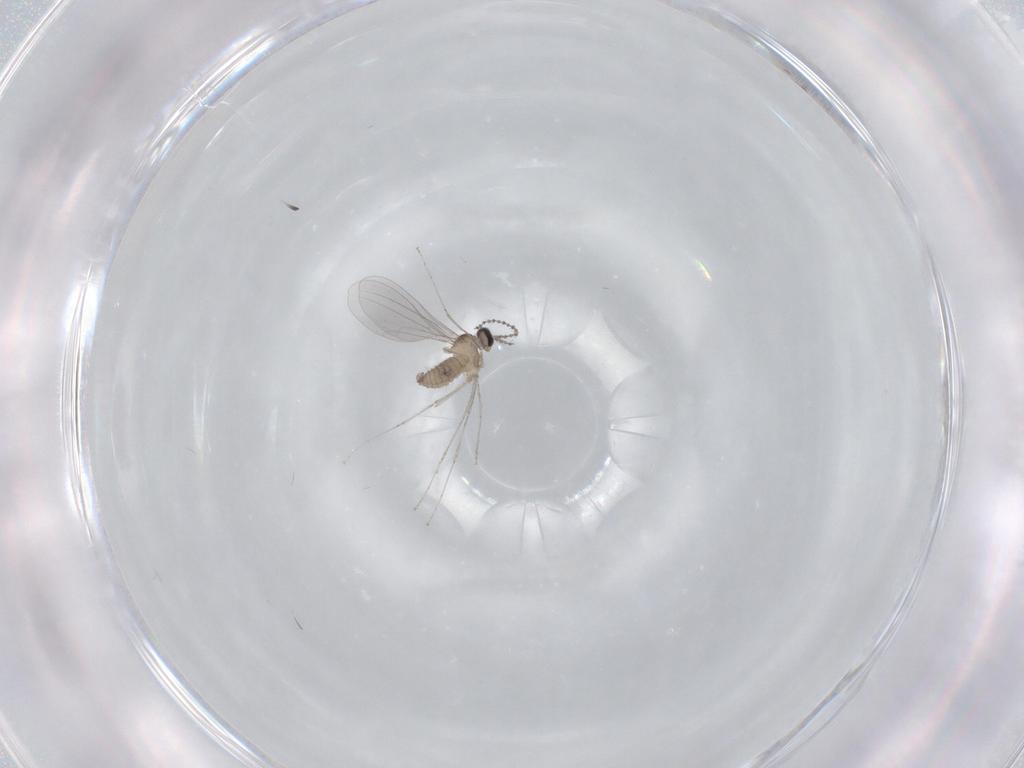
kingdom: Animalia
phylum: Arthropoda
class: Insecta
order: Diptera
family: Cecidomyiidae
